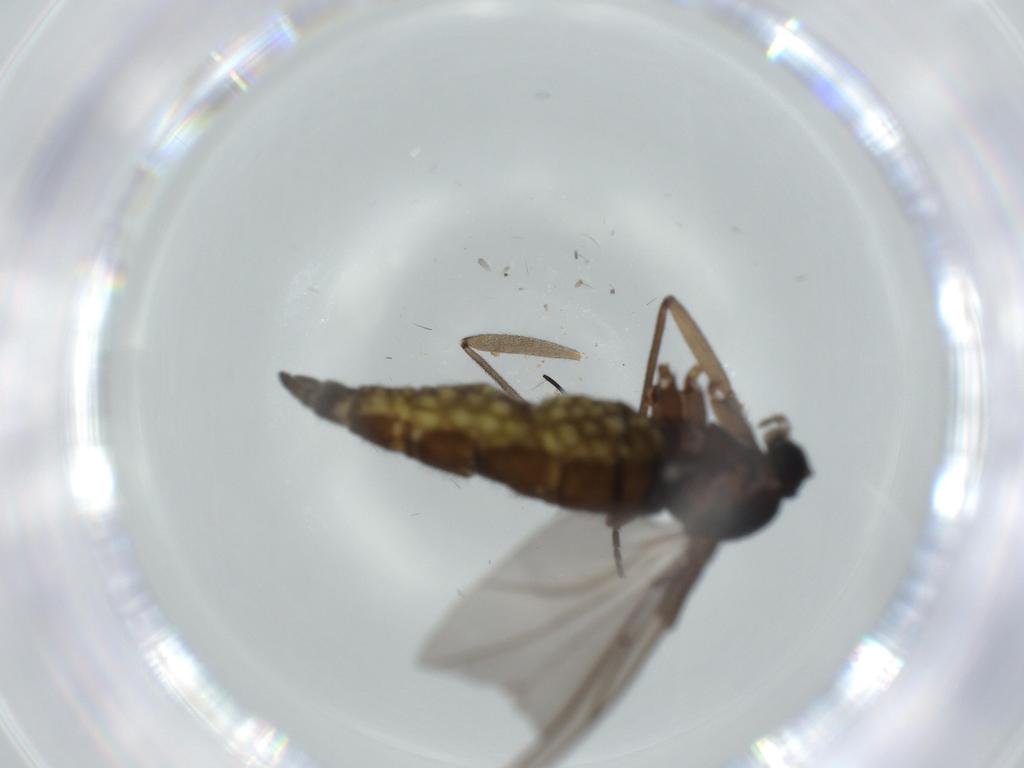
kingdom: Animalia
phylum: Arthropoda
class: Insecta
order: Diptera
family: Sciaridae
